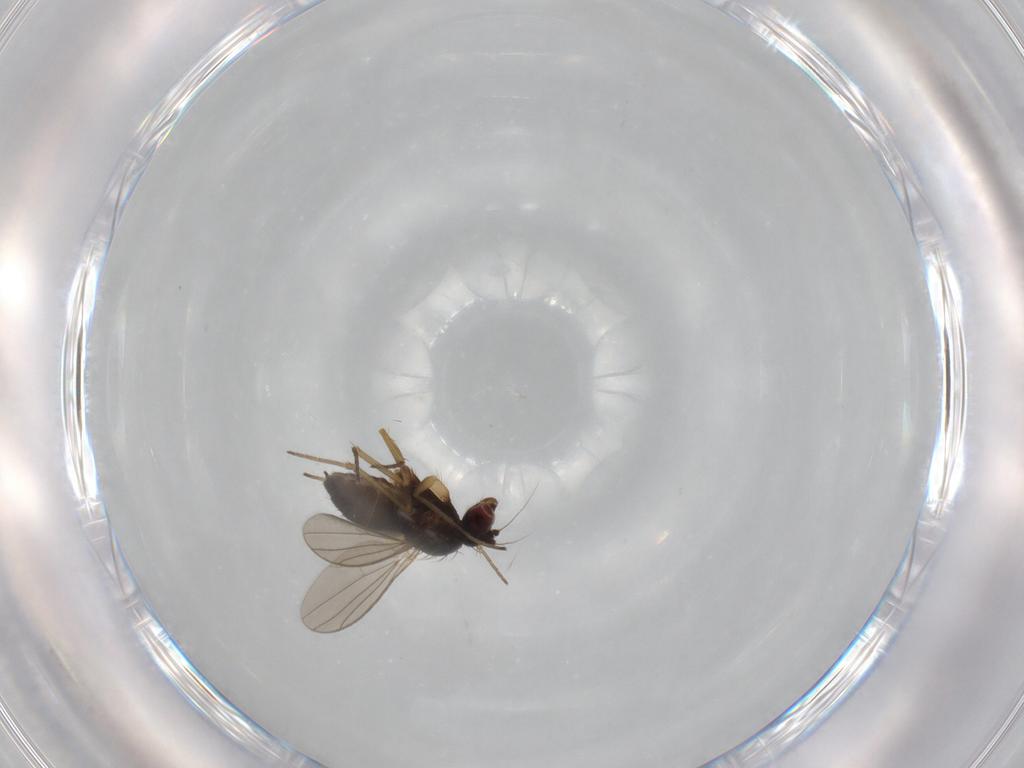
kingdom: Animalia
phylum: Arthropoda
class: Insecta
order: Diptera
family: Dolichopodidae
